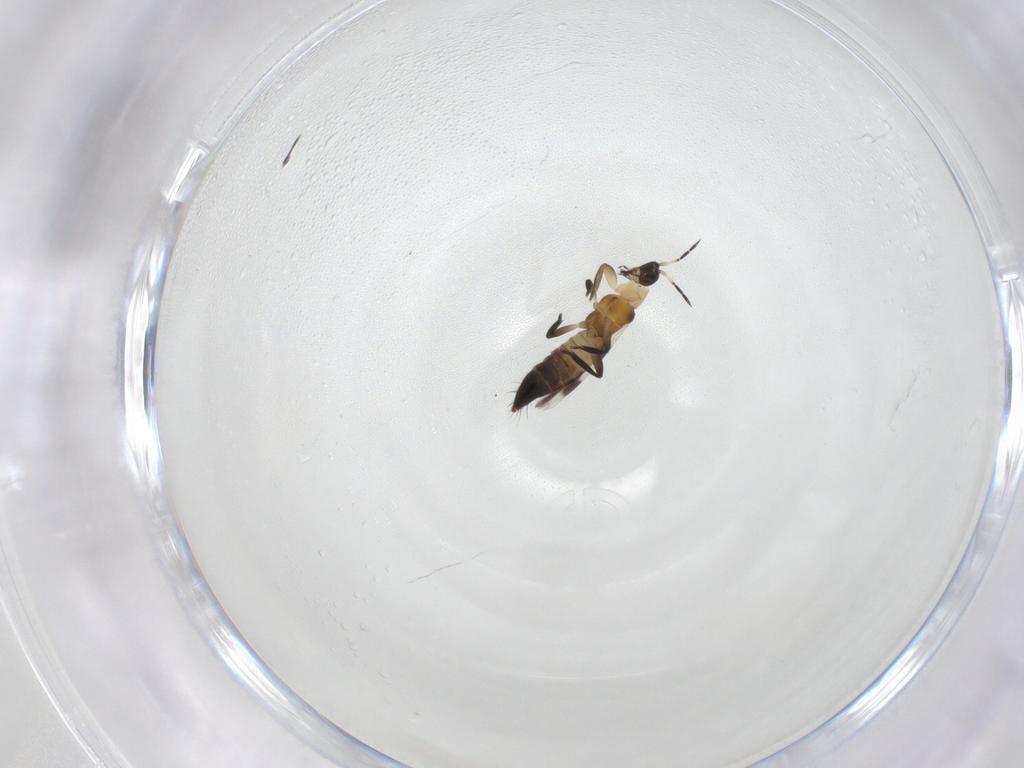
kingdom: Animalia
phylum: Arthropoda
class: Insecta
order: Thysanoptera
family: Aeolothripidae
